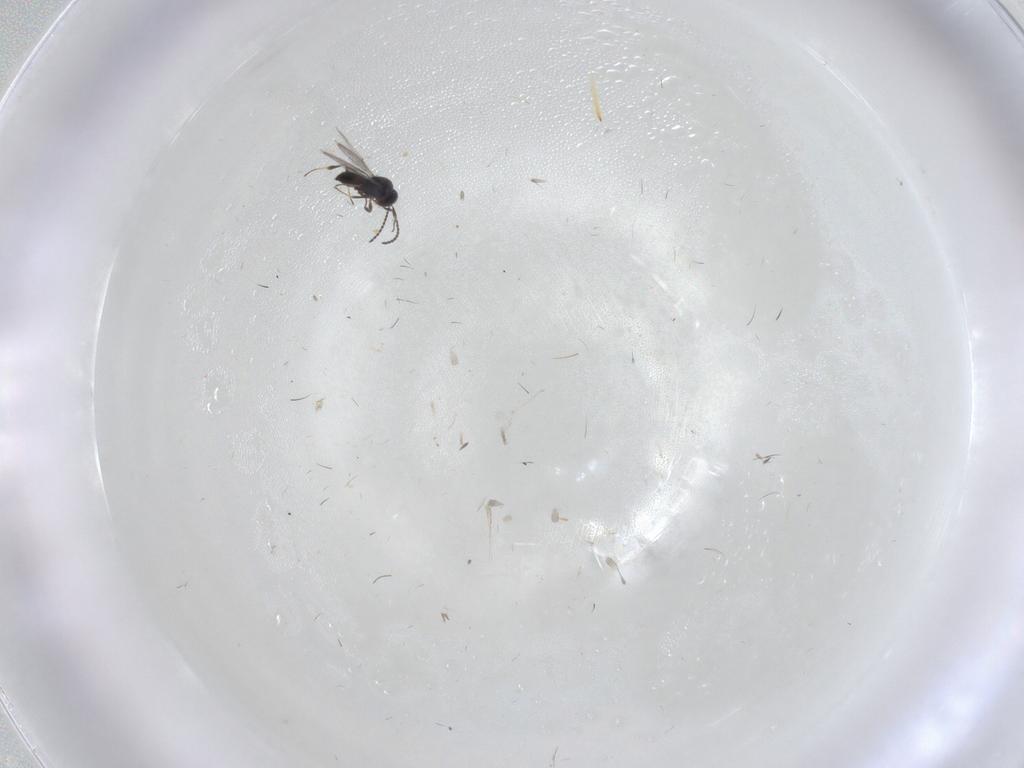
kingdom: Animalia
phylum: Arthropoda
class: Insecta
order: Hymenoptera
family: Scelionidae
